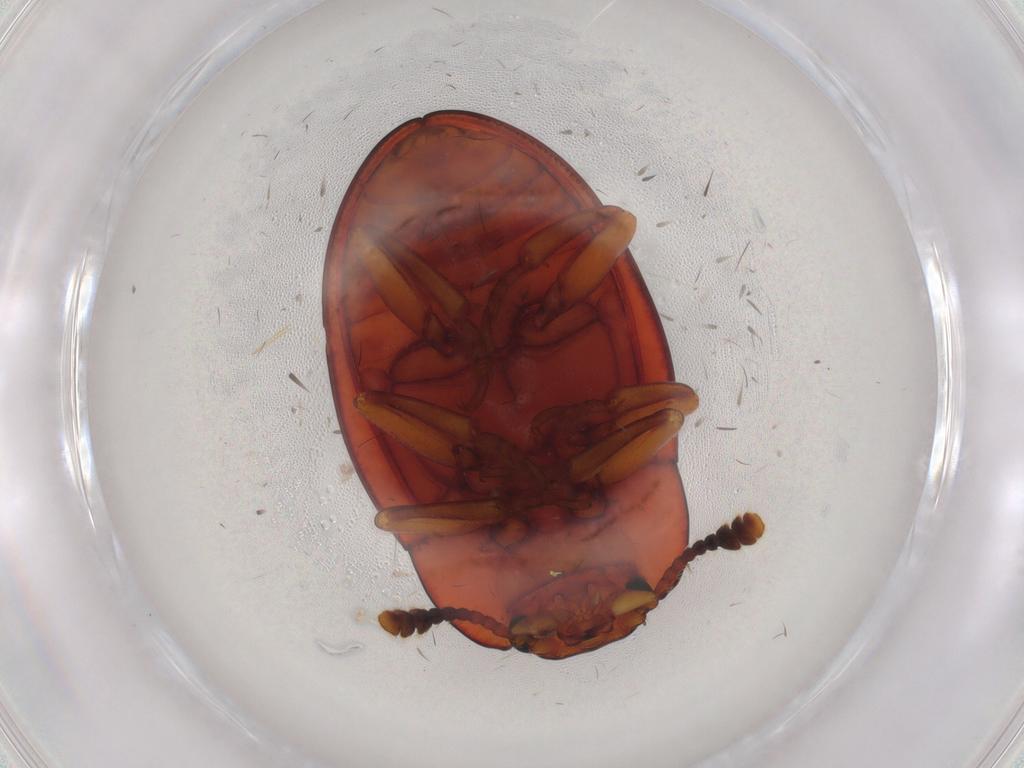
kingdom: Animalia
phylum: Arthropoda
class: Insecta
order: Coleoptera
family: Erotylidae
